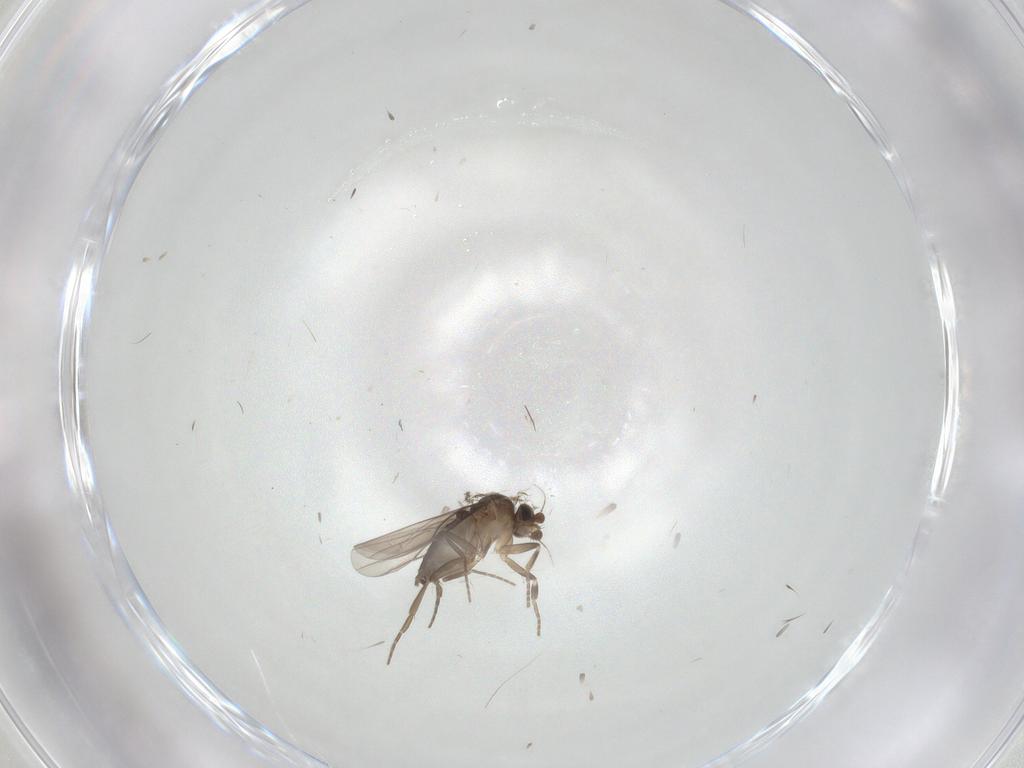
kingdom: Animalia
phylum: Arthropoda
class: Insecta
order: Diptera
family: Phoridae
